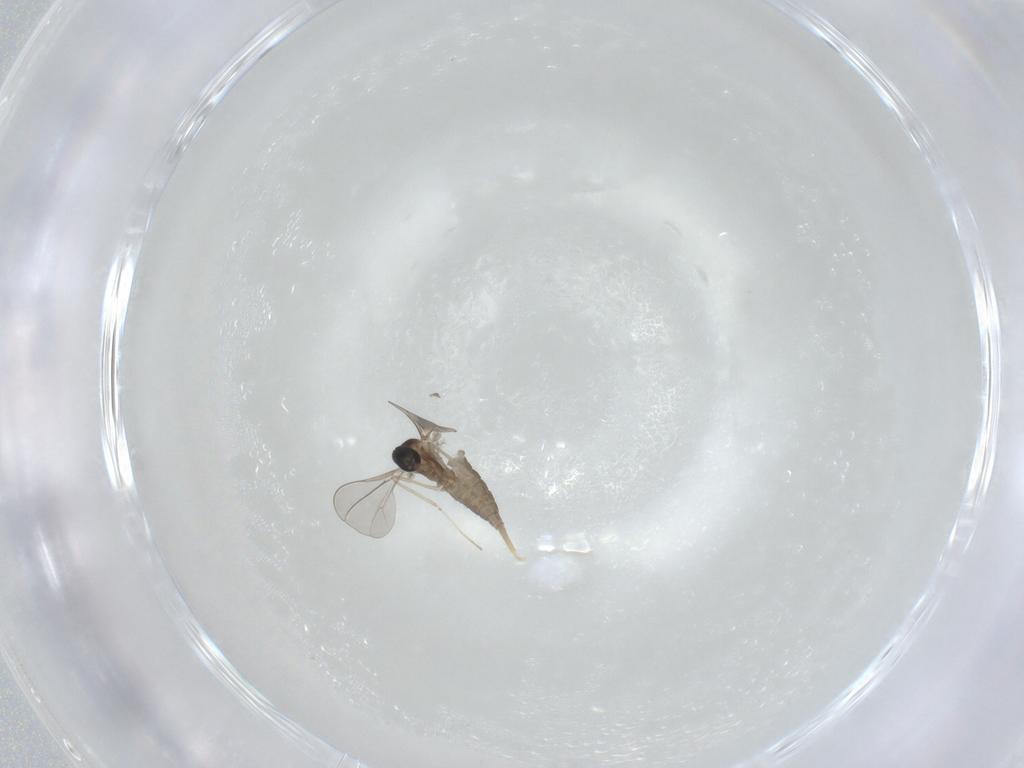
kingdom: Animalia
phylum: Arthropoda
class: Insecta
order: Diptera
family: Cecidomyiidae
